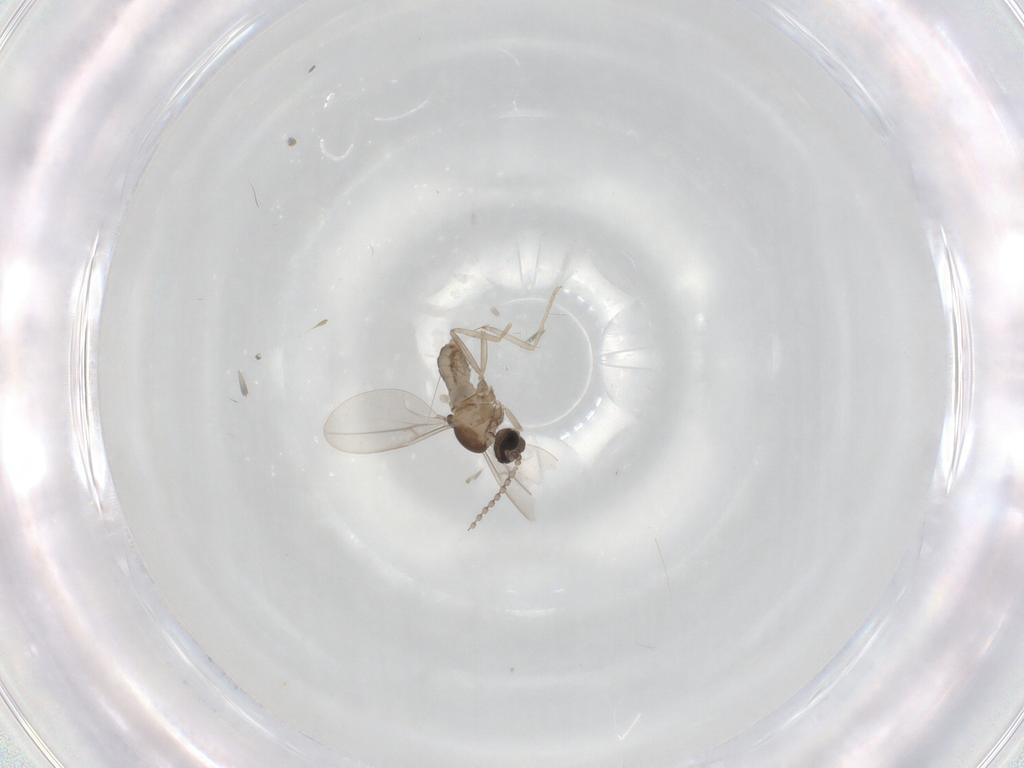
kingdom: Animalia
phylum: Arthropoda
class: Insecta
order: Diptera
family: Cecidomyiidae
